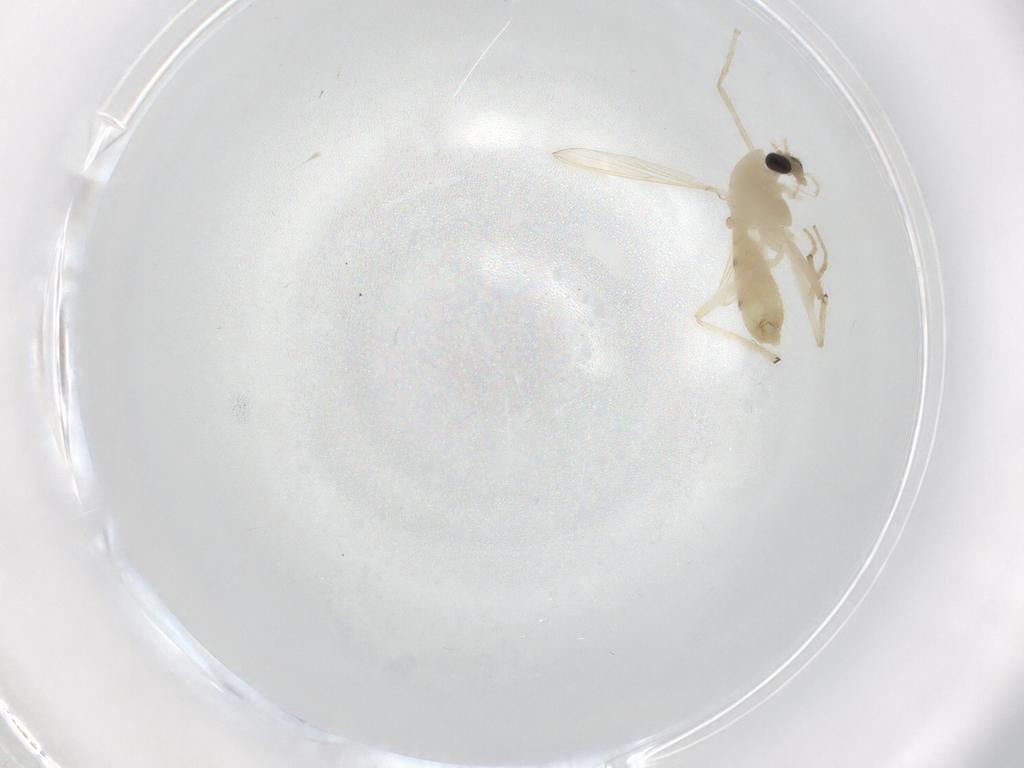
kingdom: Animalia
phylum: Arthropoda
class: Insecta
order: Diptera
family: Chironomidae
